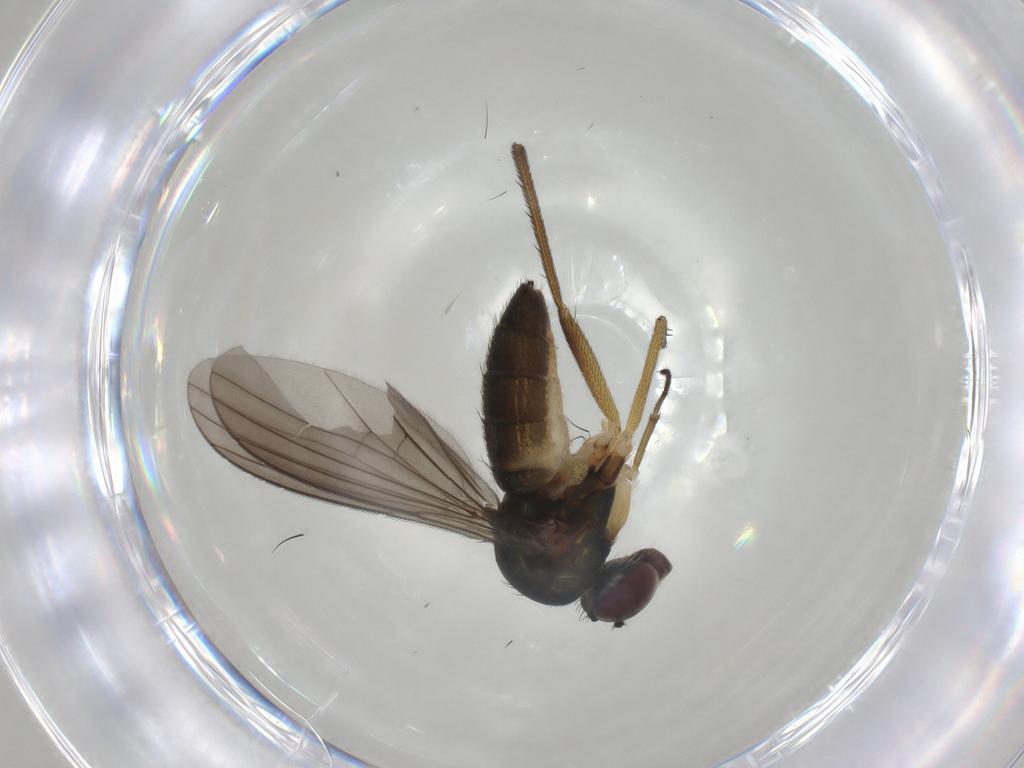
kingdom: Animalia
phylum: Arthropoda
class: Insecta
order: Diptera
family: Dolichopodidae
